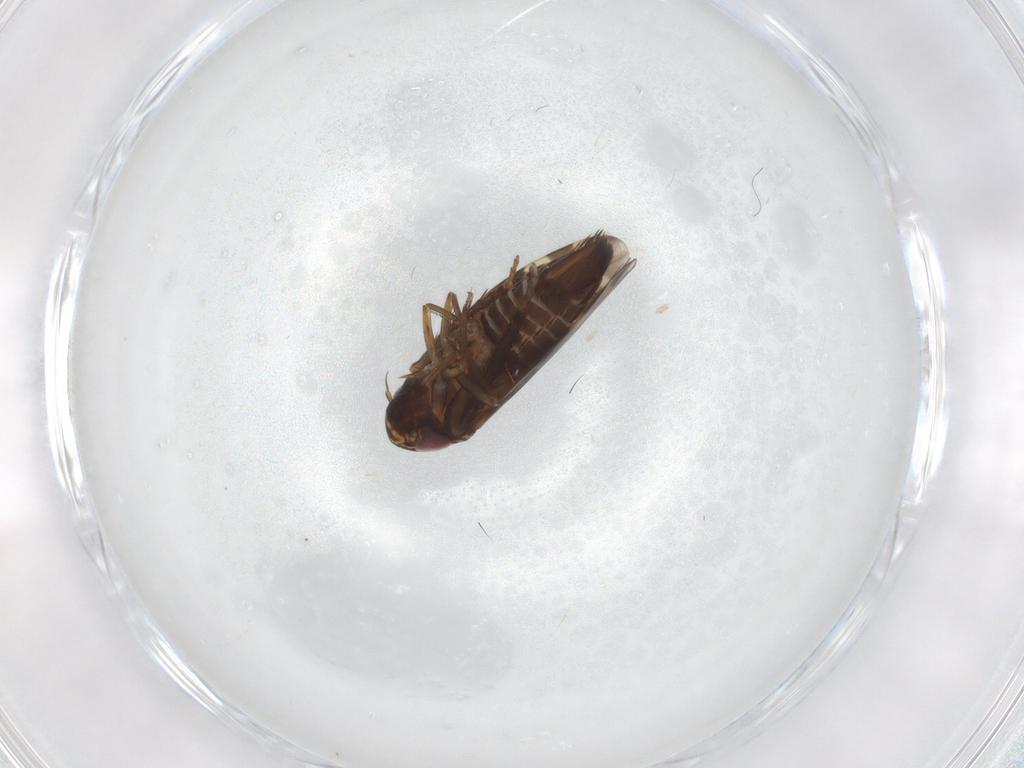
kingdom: Animalia
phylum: Arthropoda
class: Insecta
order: Hemiptera
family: Cicadellidae
